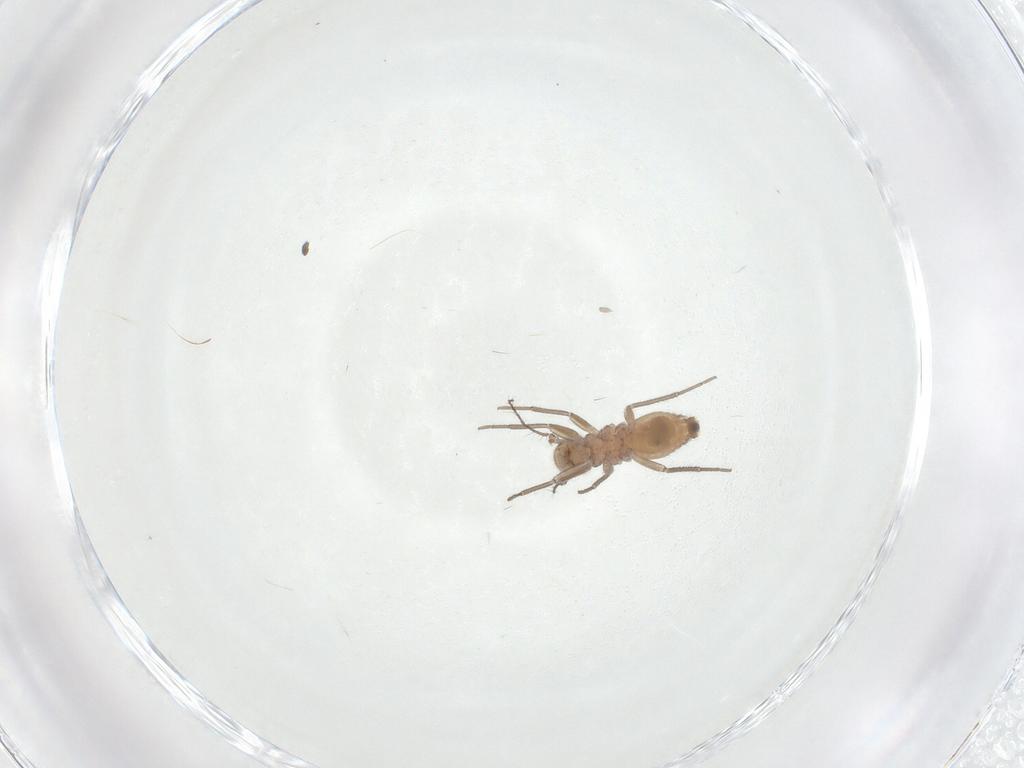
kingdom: Animalia
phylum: Arthropoda
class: Insecta
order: Psocodea
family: Mesopsocidae
